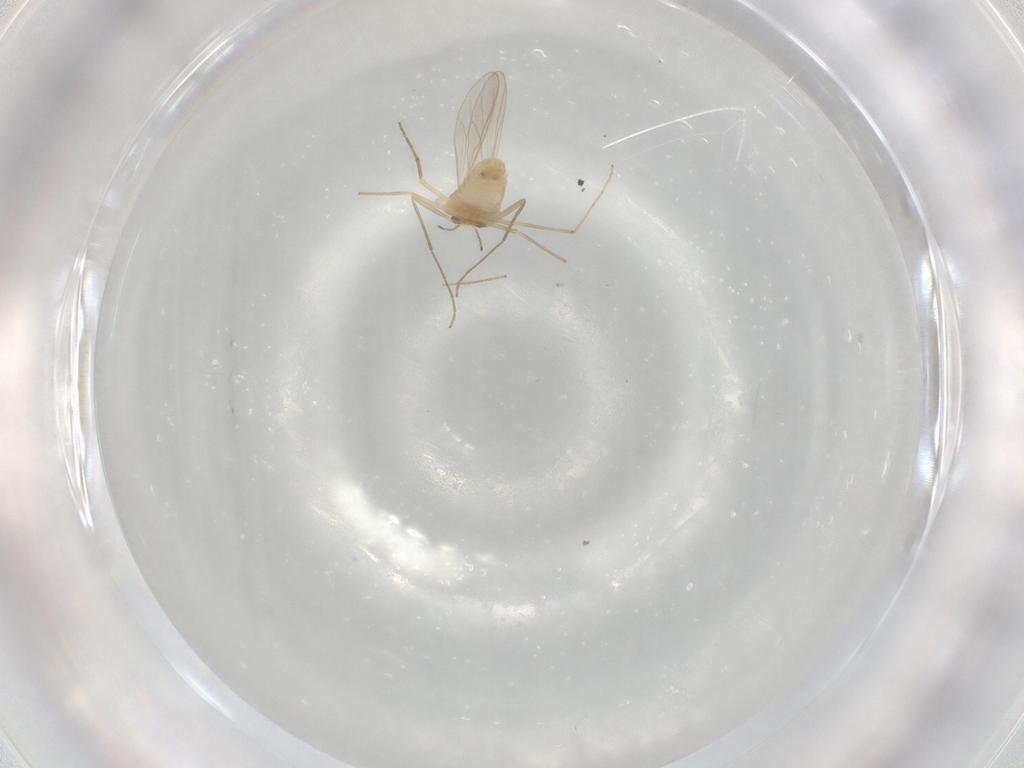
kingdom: Animalia
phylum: Arthropoda
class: Insecta
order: Diptera
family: Chironomidae
